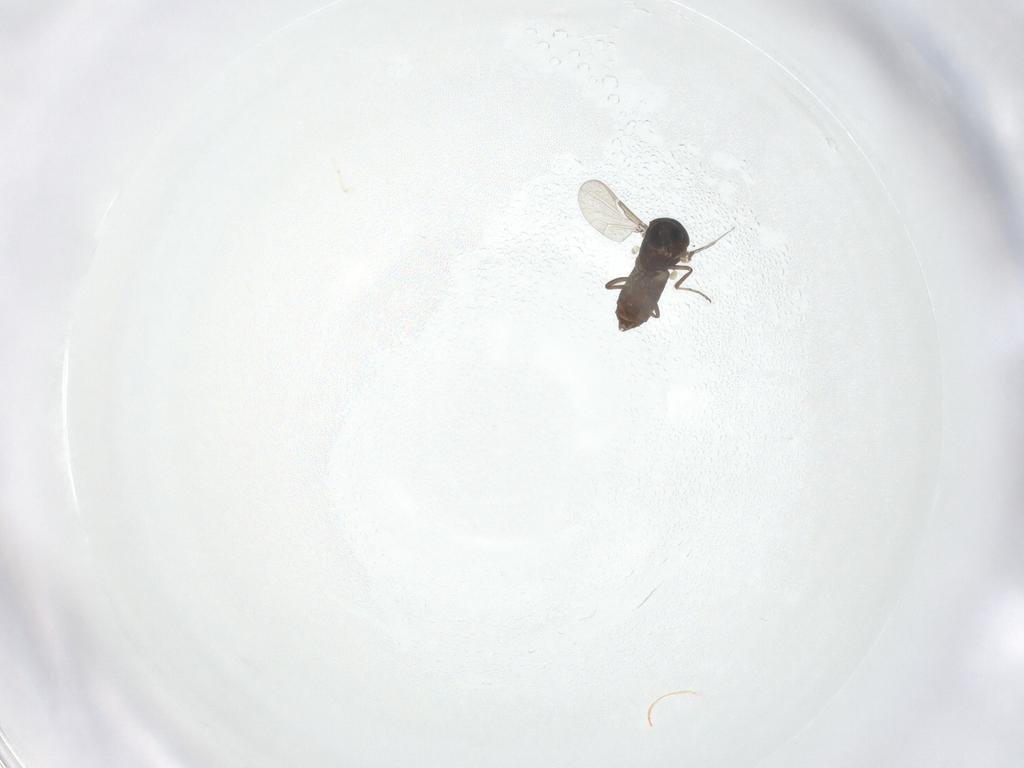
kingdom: Animalia
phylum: Arthropoda
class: Insecta
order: Diptera
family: Ceratopogonidae
